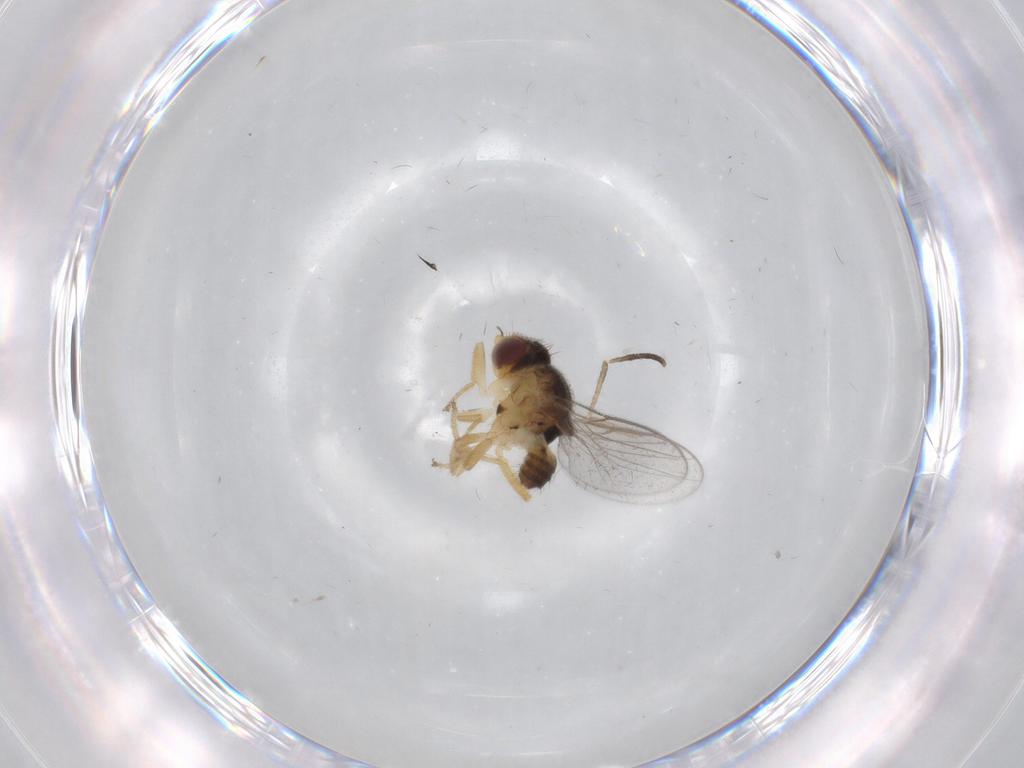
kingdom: Animalia
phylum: Arthropoda
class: Insecta
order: Diptera
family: Chloropidae
